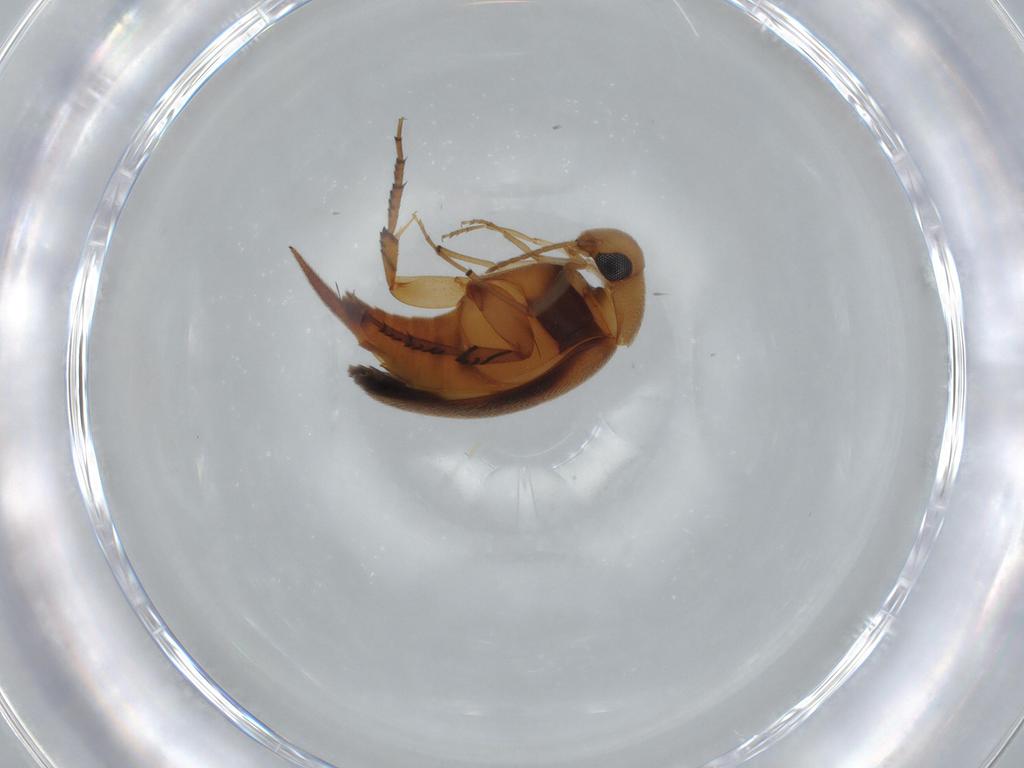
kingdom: Animalia
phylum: Arthropoda
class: Insecta
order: Coleoptera
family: Mordellidae
